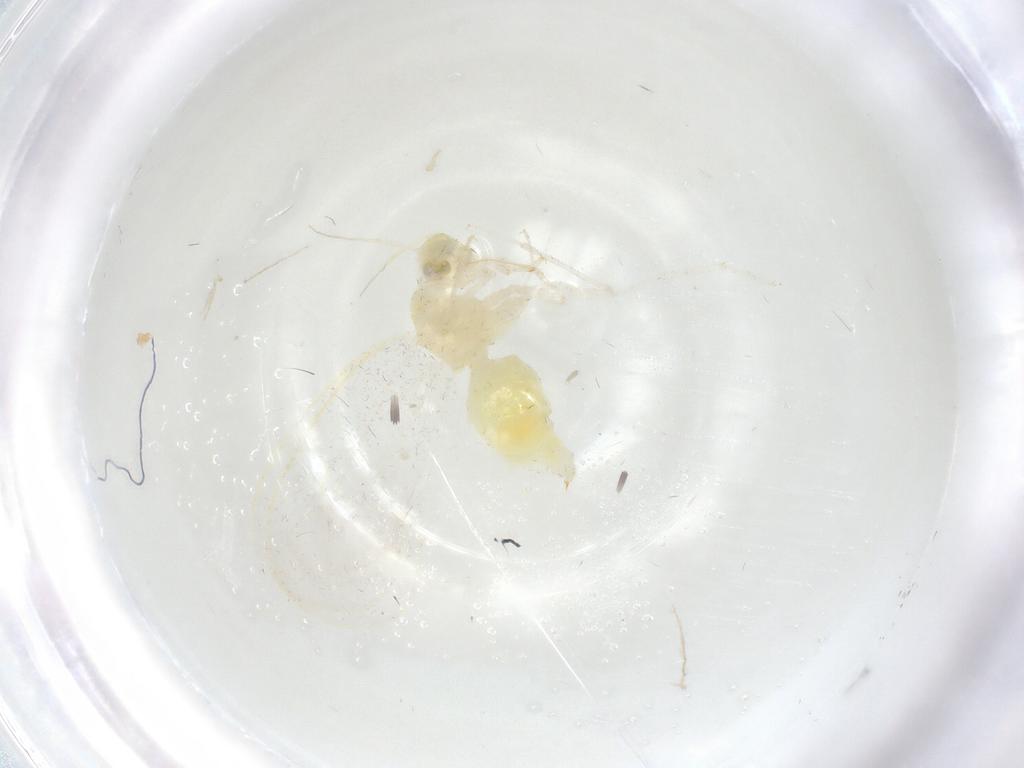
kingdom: Animalia
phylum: Arthropoda
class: Insecta
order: Hemiptera
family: Aleyrodidae
